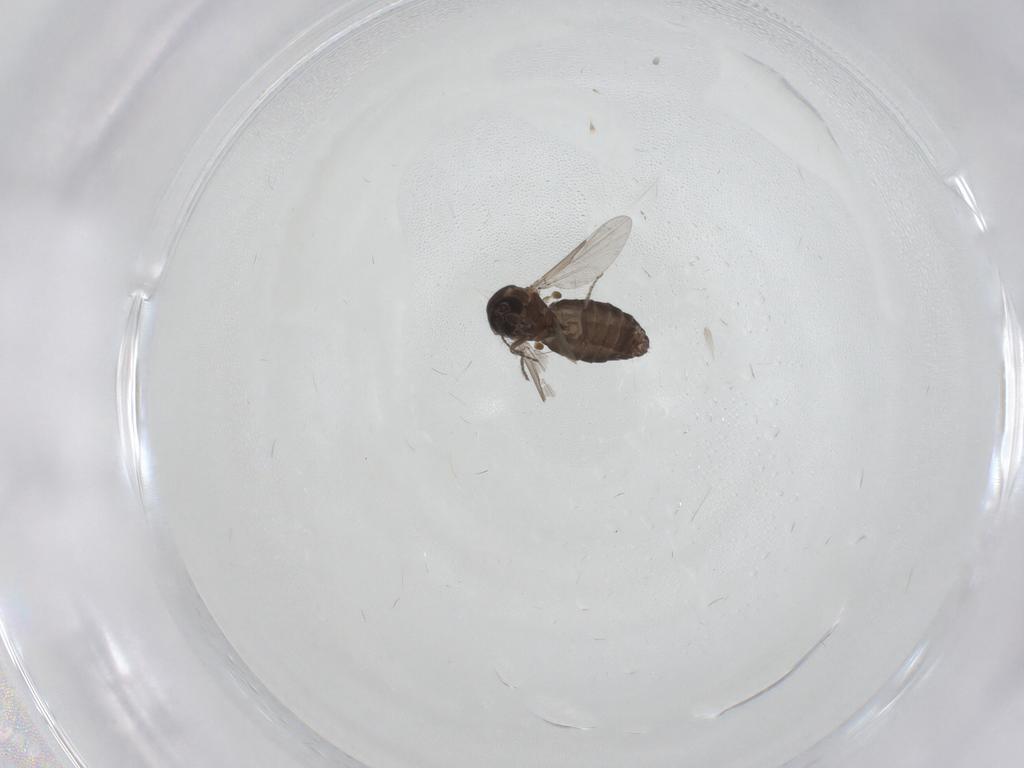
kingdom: Animalia
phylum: Arthropoda
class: Insecta
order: Diptera
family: Ceratopogonidae
